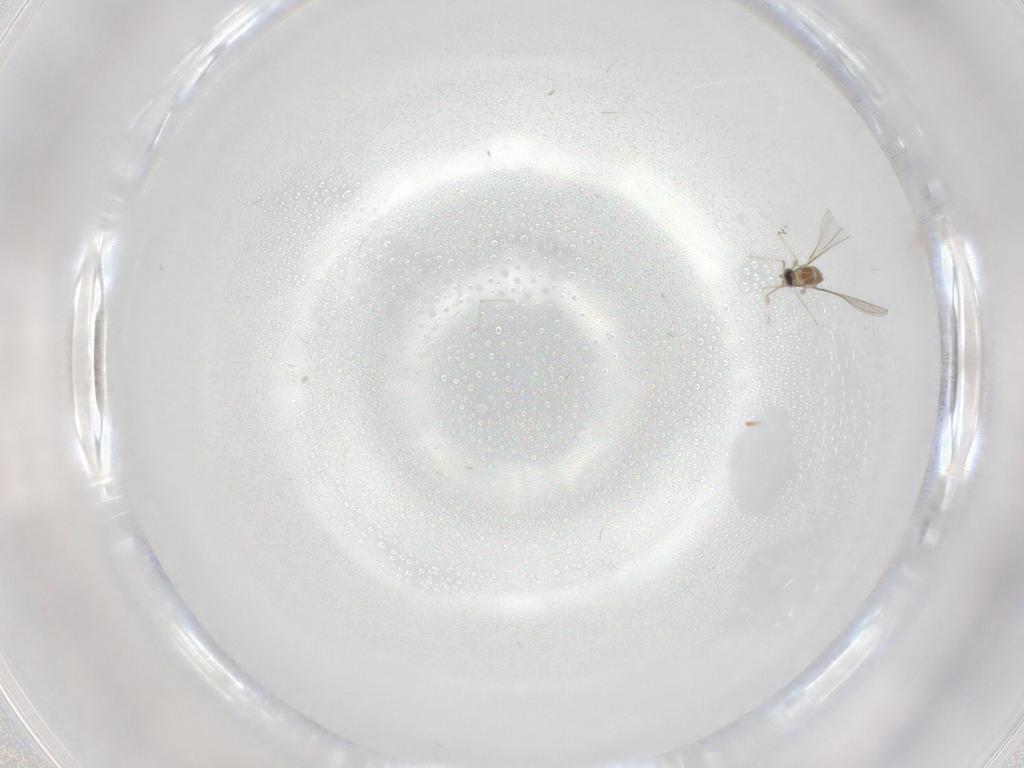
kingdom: Animalia
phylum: Arthropoda
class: Insecta
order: Diptera
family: Cecidomyiidae
